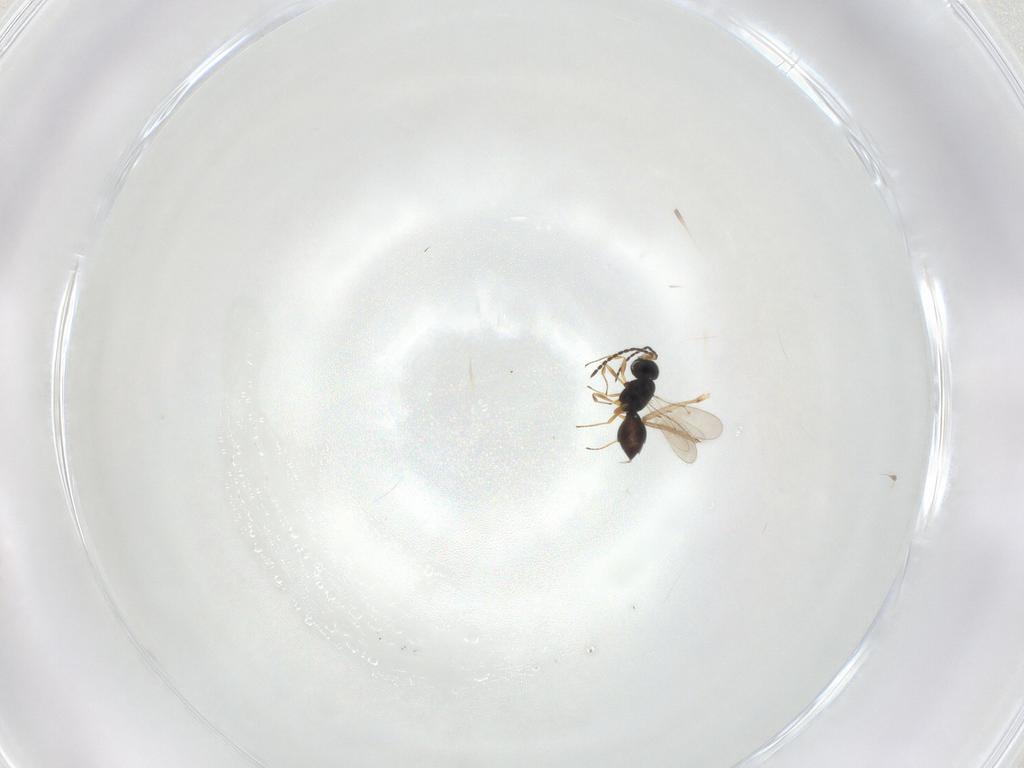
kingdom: Animalia
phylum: Arthropoda
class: Insecta
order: Hymenoptera
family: Scelionidae
